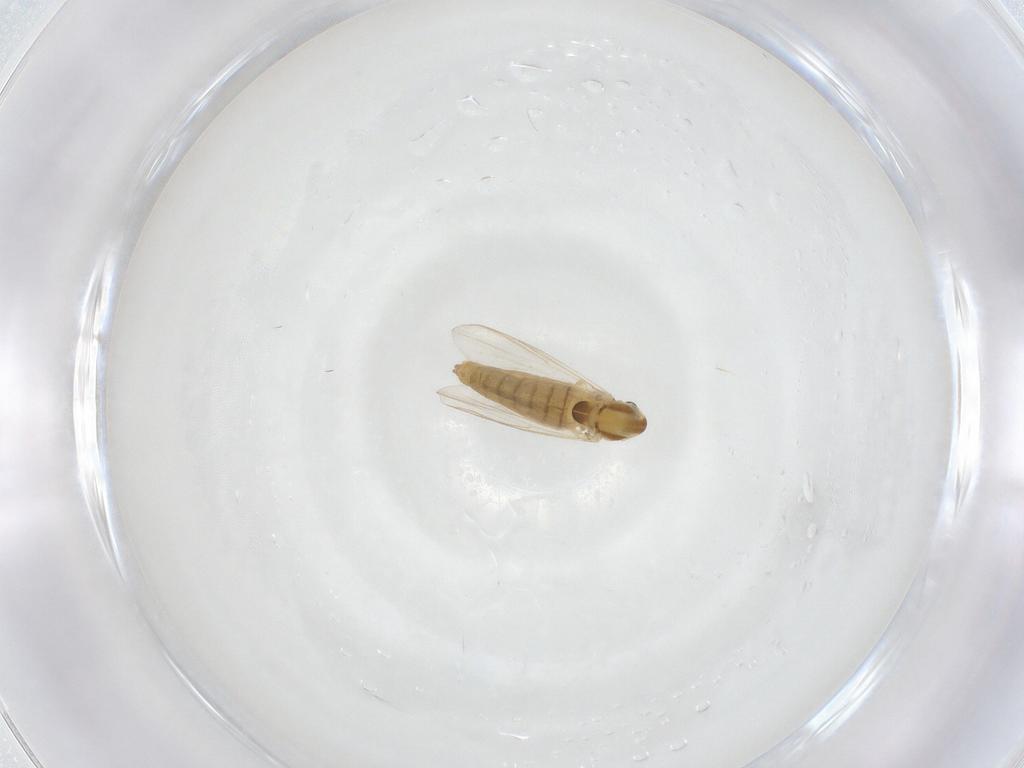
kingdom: Animalia
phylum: Arthropoda
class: Insecta
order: Diptera
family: Chironomidae
